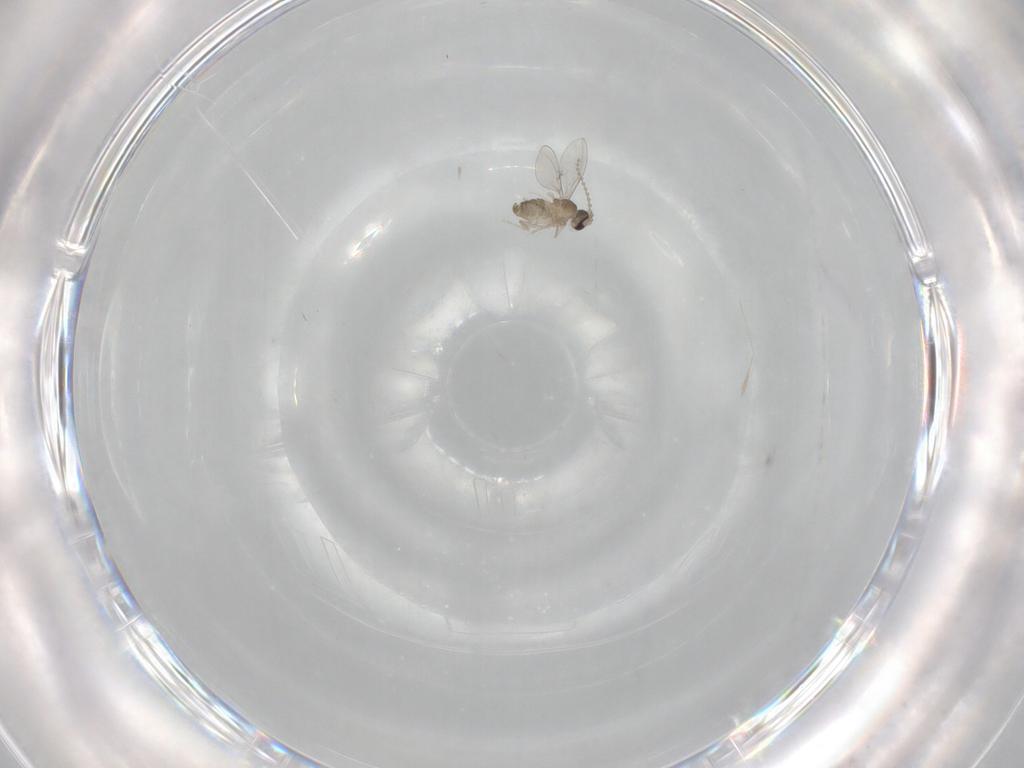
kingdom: Animalia
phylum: Arthropoda
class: Insecta
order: Diptera
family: Cecidomyiidae
